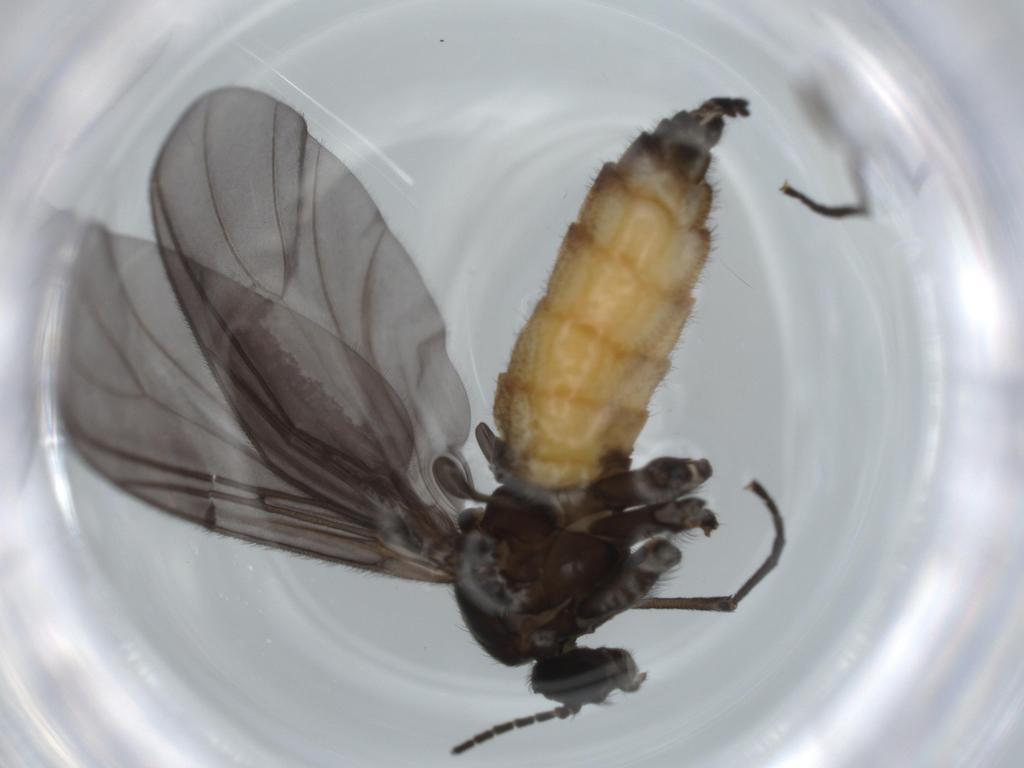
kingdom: Animalia
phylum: Arthropoda
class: Insecta
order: Diptera
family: Sciaridae
